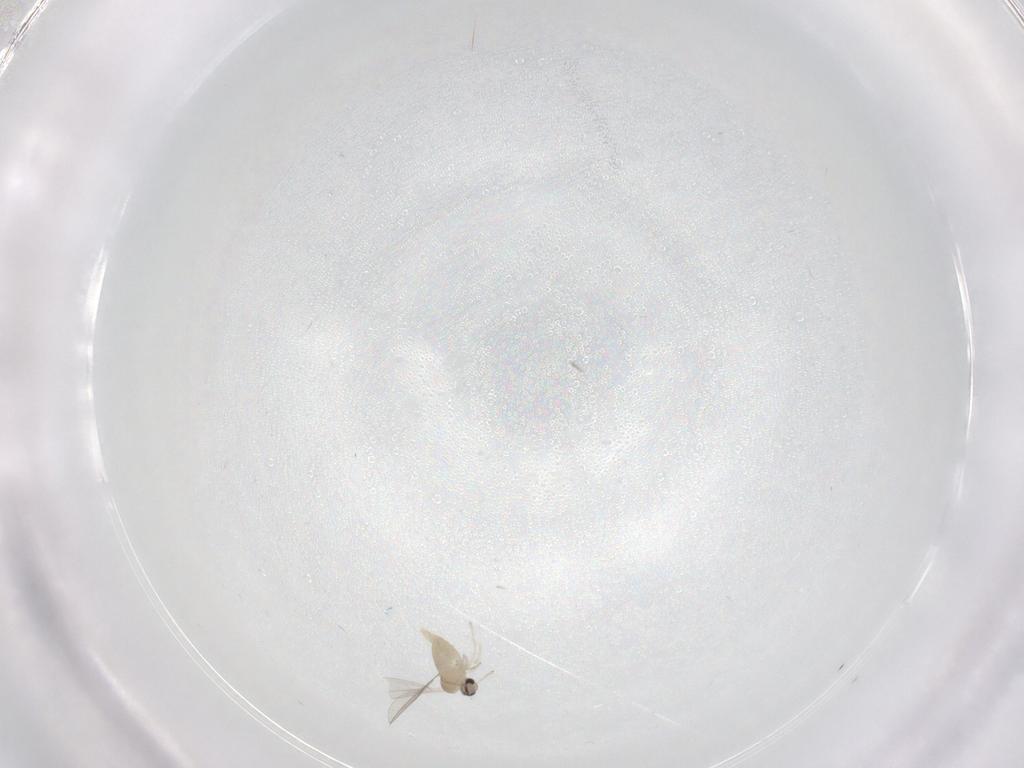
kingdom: Animalia
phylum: Arthropoda
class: Insecta
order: Diptera
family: Cecidomyiidae
